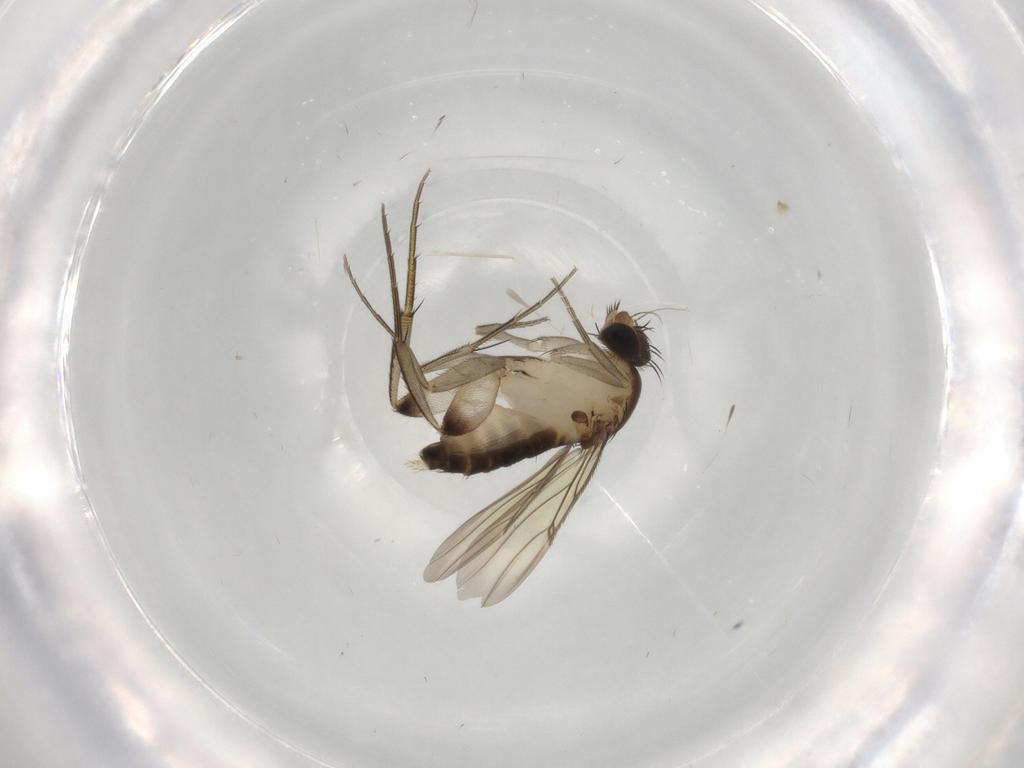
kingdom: Animalia
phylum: Arthropoda
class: Insecta
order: Diptera
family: Phoridae
